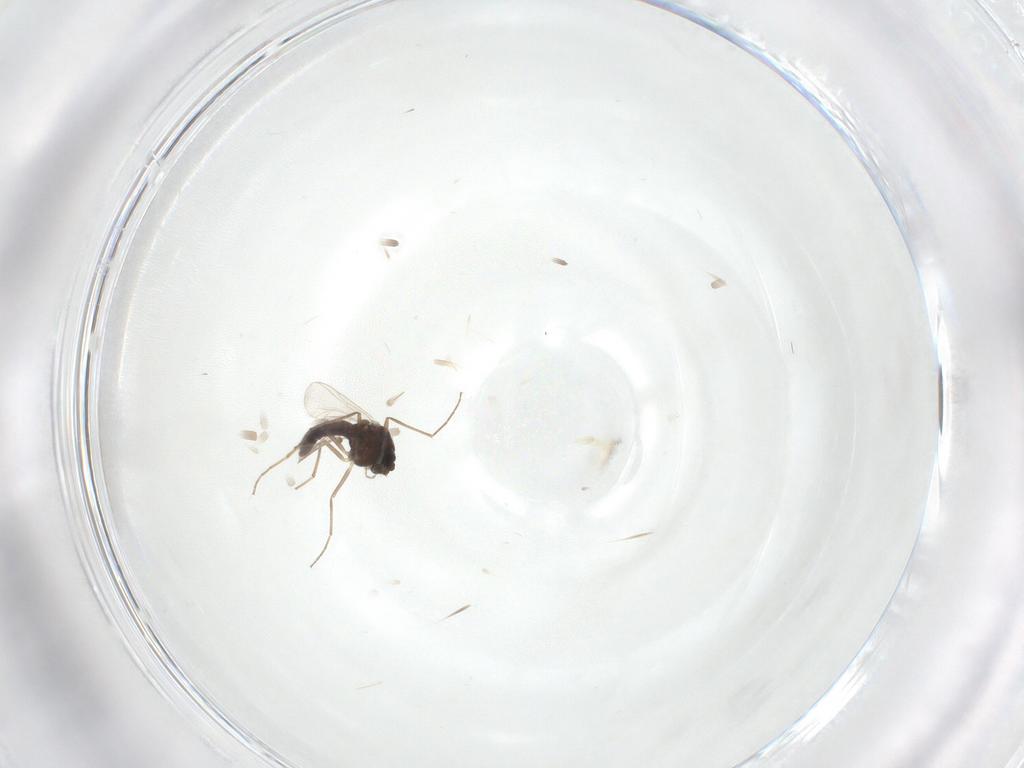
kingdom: Animalia
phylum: Arthropoda
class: Insecta
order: Diptera
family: Chironomidae
